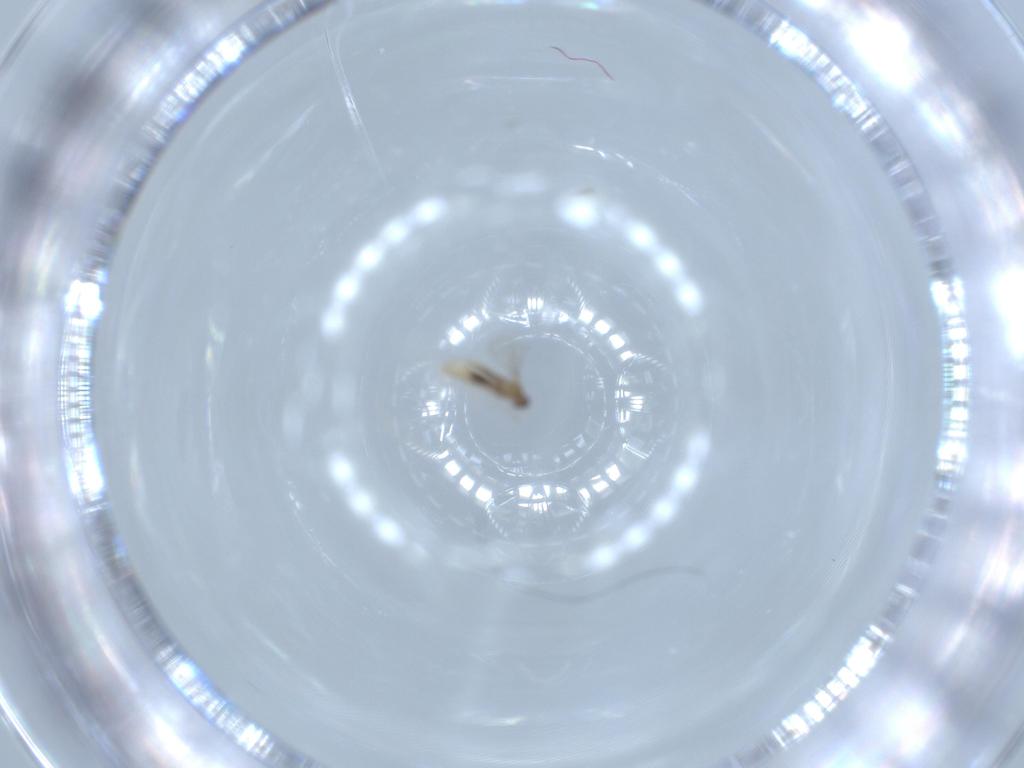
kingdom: Animalia
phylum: Arthropoda
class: Insecta
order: Diptera
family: Cecidomyiidae
